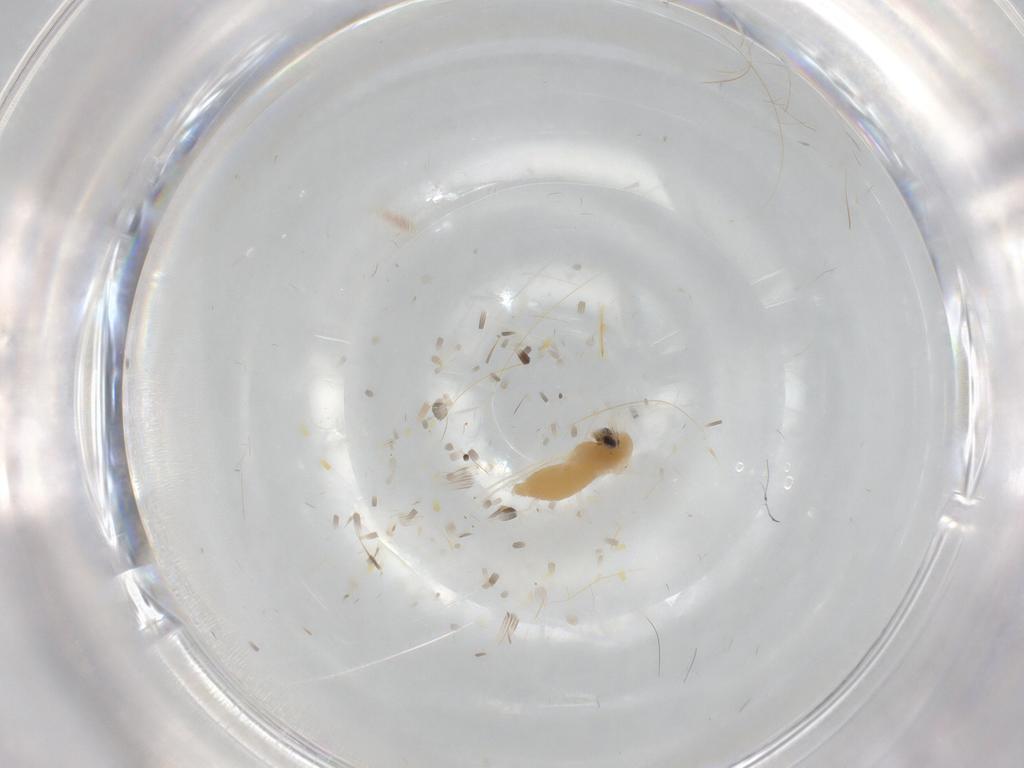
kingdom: Animalia
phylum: Arthropoda
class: Insecta
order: Diptera
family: Chironomidae
